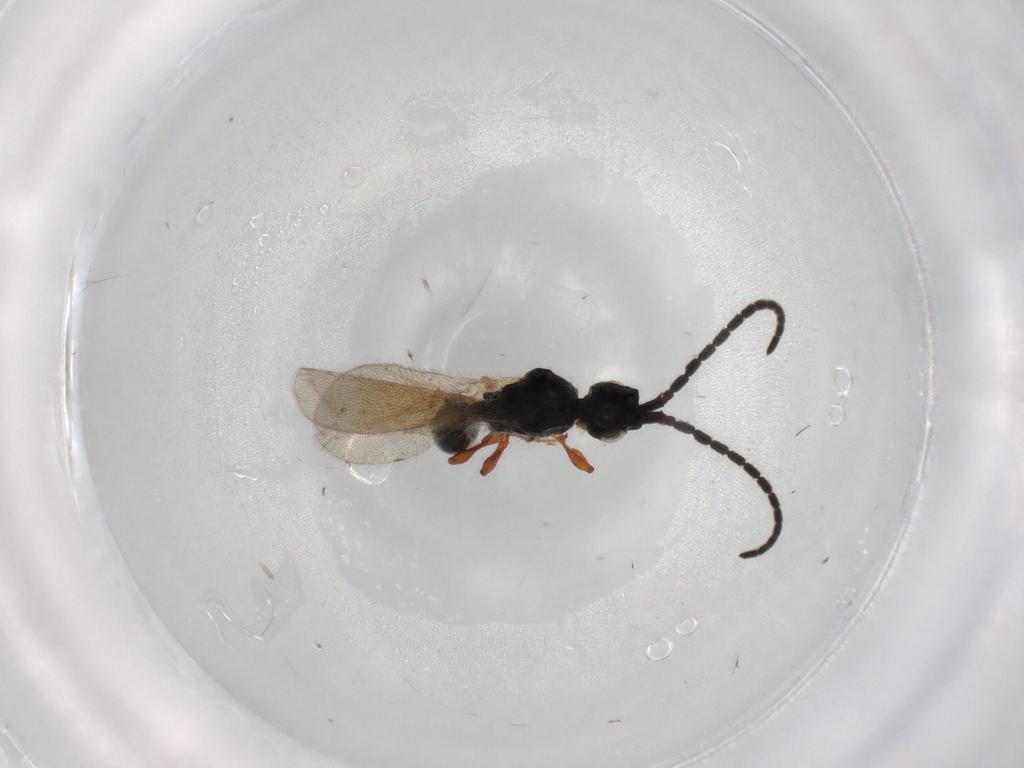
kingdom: Animalia
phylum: Arthropoda
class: Insecta
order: Hymenoptera
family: Diapriidae
